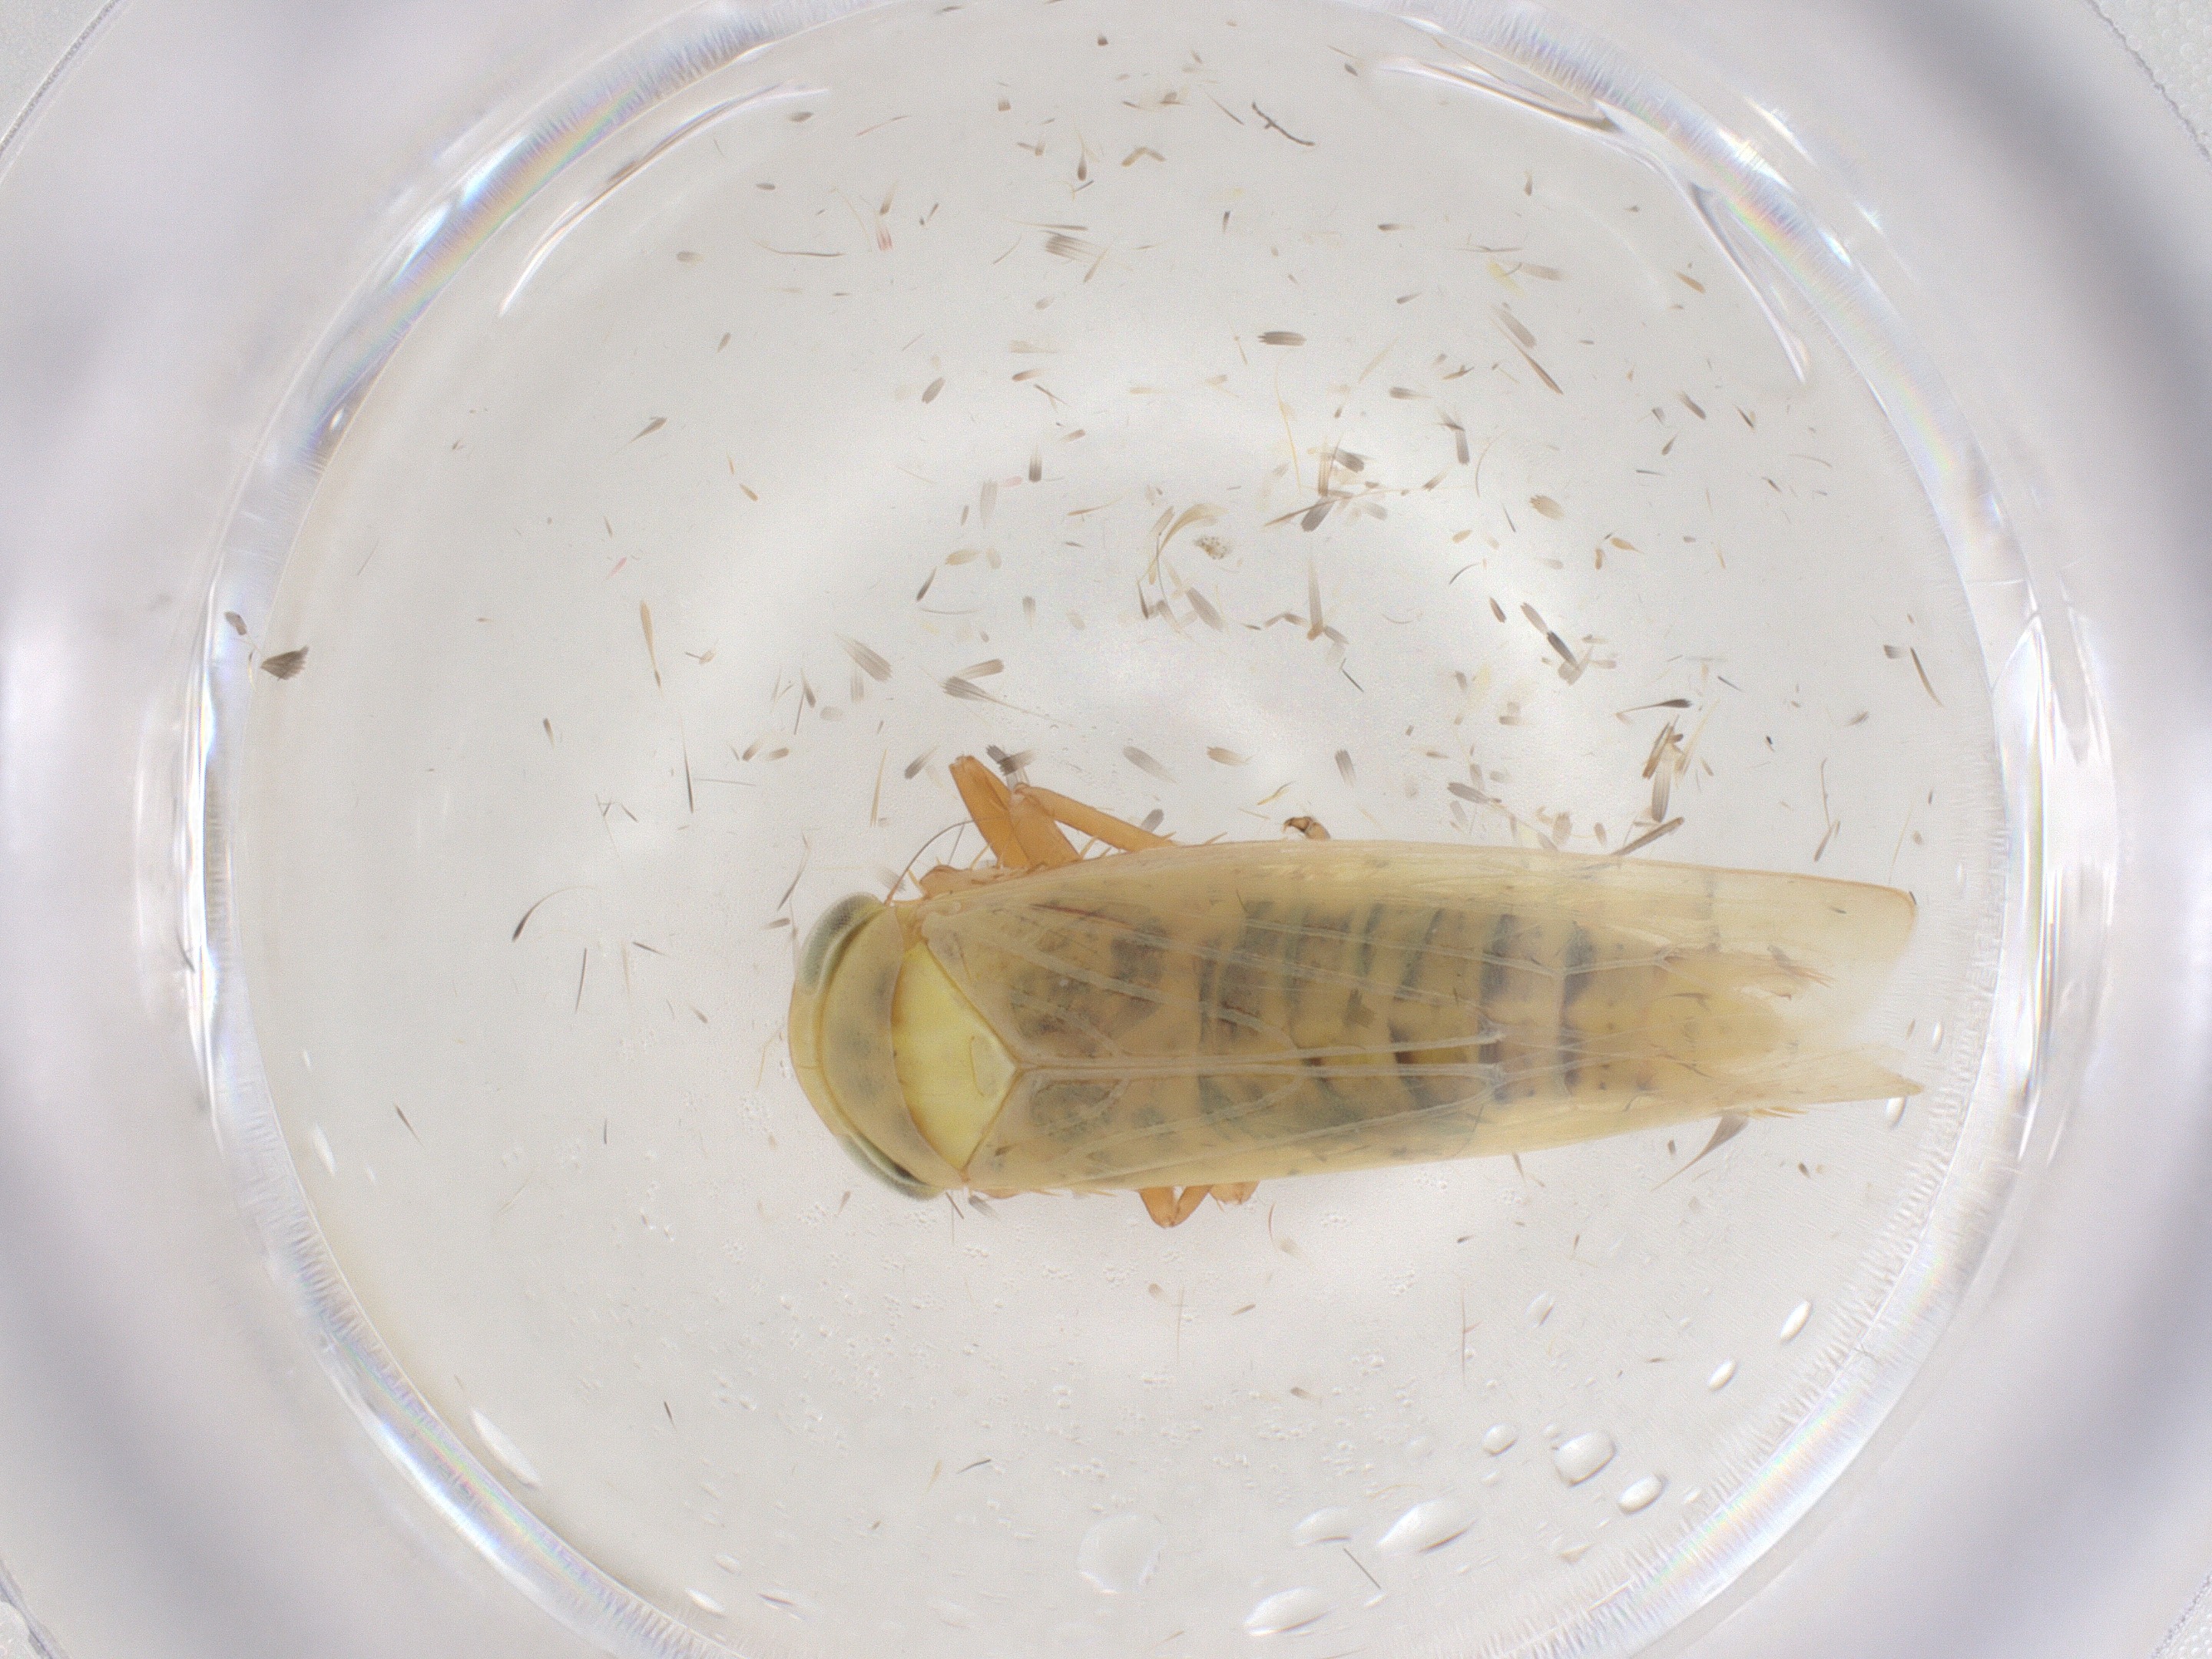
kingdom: Animalia
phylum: Arthropoda
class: Insecta
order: Hemiptera
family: Cicadellidae
